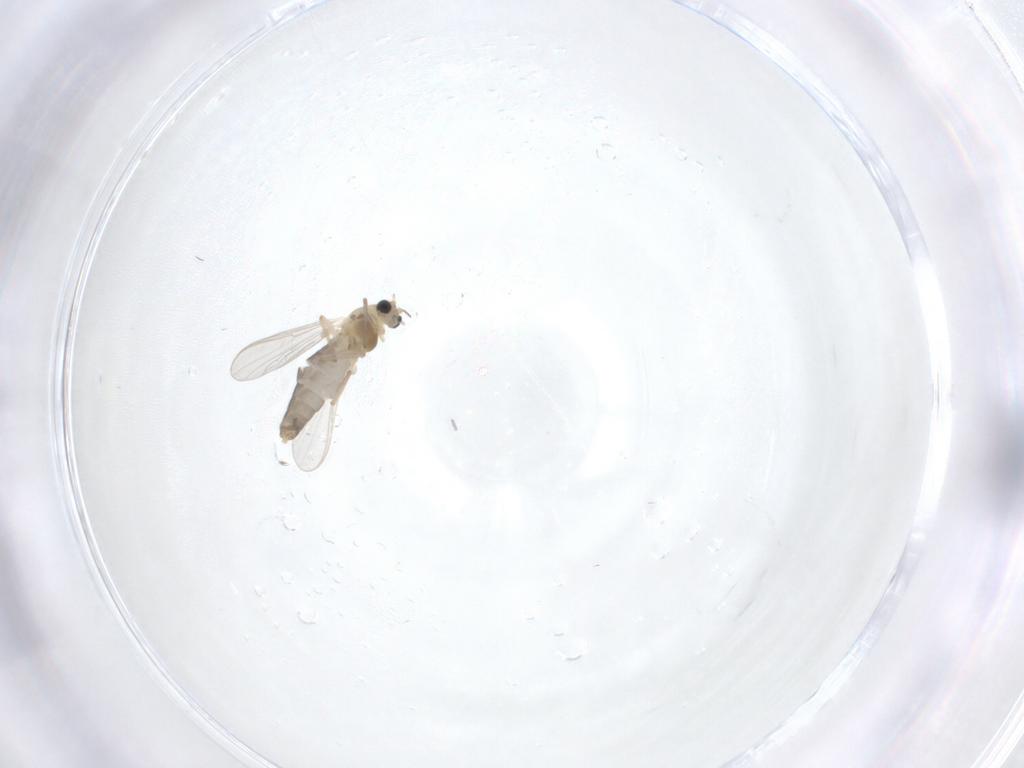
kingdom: Animalia
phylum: Arthropoda
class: Insecta
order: Diptera
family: Chironomidae
